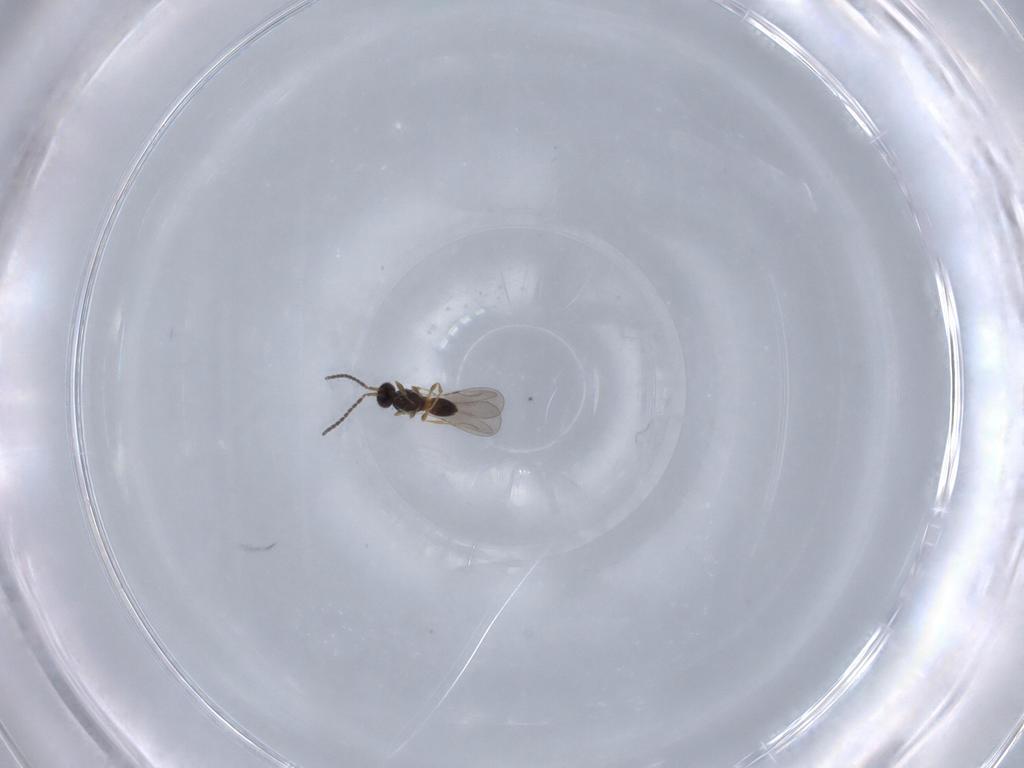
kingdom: Animalia
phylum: Arthropoda
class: Insecta
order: Hymenoptera
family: Ceraphronidae
